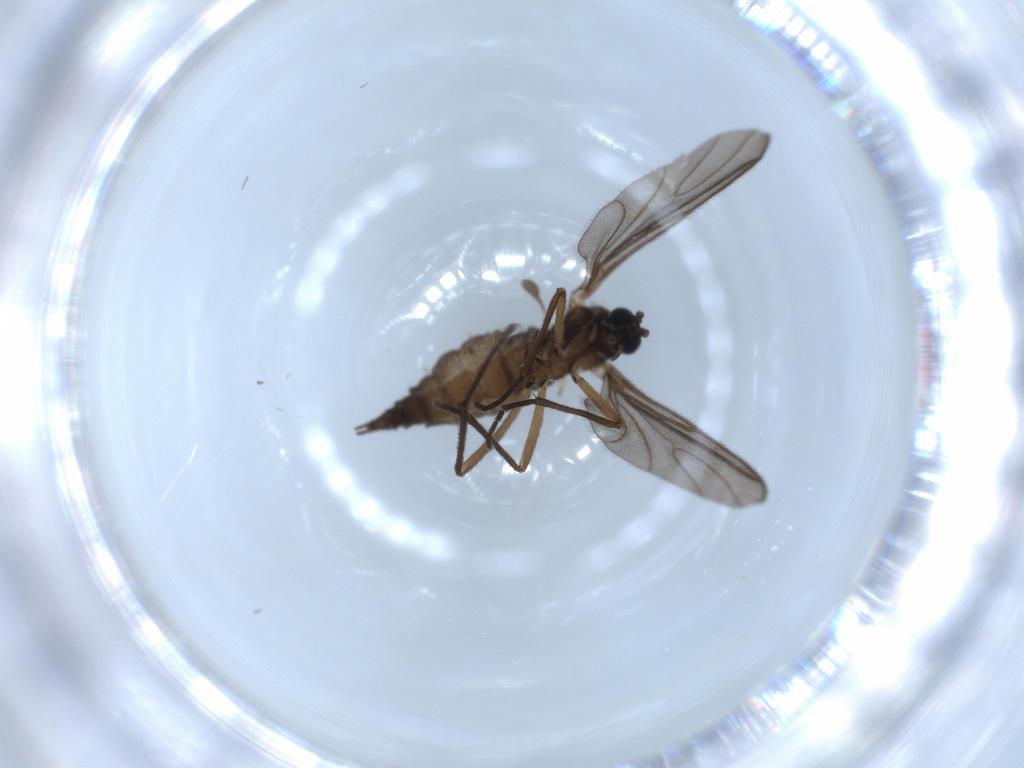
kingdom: Animalia
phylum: Arthropoda
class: Insecta
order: Diptera
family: Sciaridae
